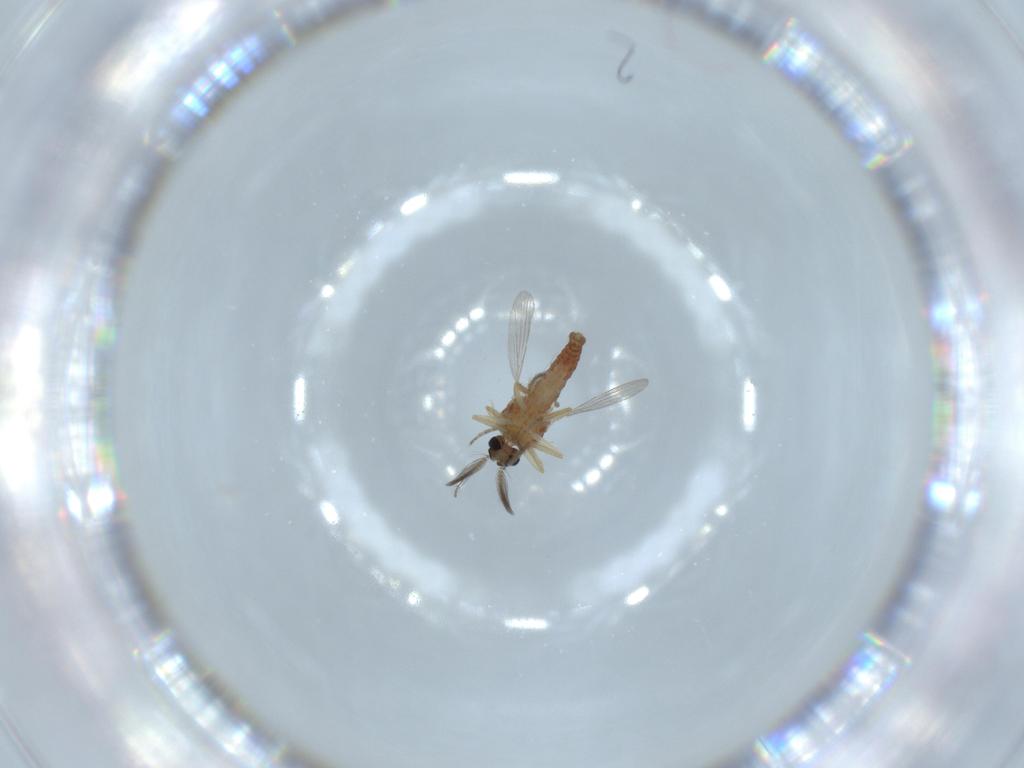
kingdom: Animalia
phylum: Arthropoda
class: Insecta
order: Diptera
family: Ceratopogonidae
